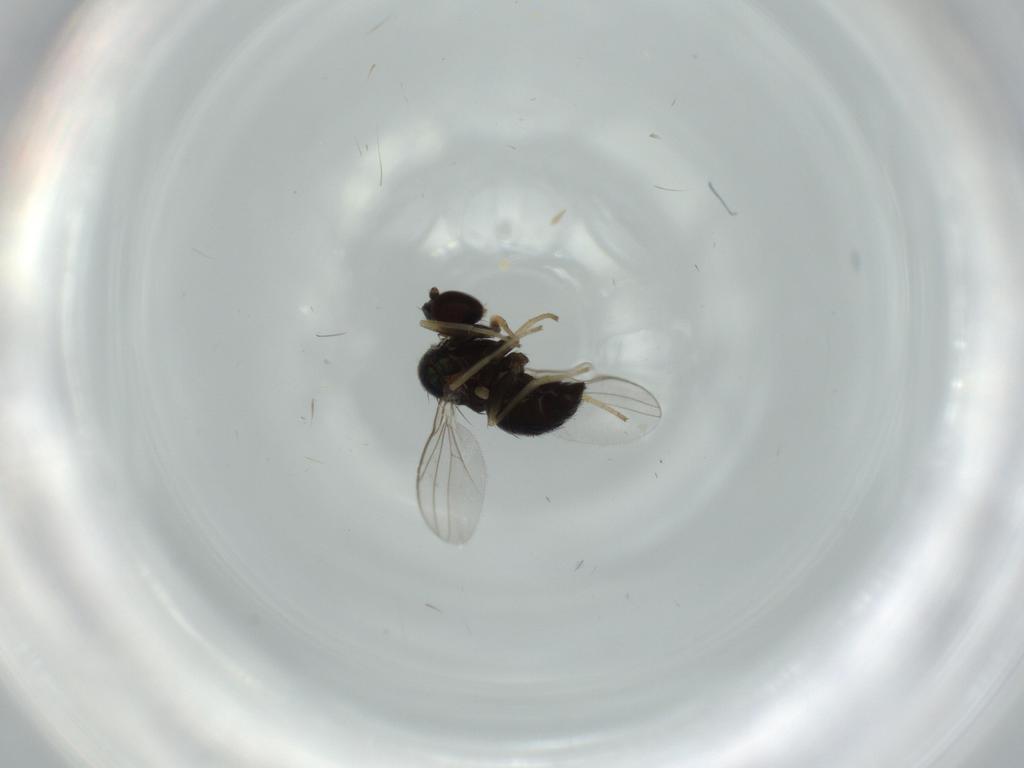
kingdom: Animalia
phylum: Arthropoda
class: Insecta
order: Diptera
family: Dolichopodidae
